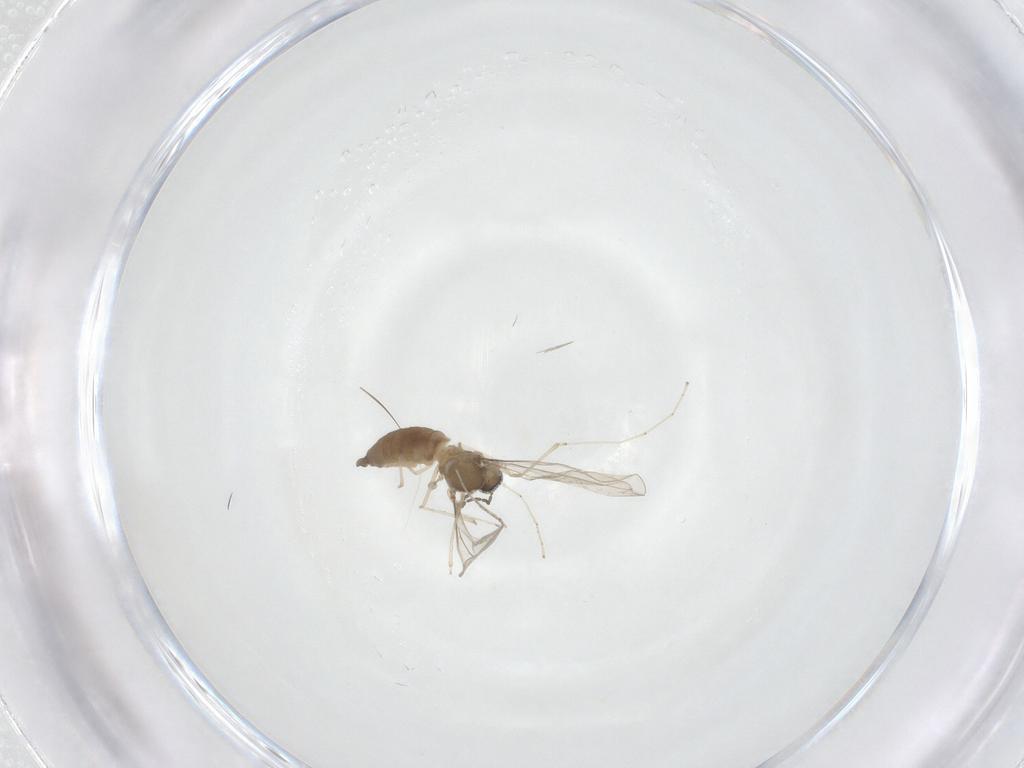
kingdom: Animalia
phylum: Arthropoda
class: Insecta
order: Diptera
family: Cecidomyiidae
